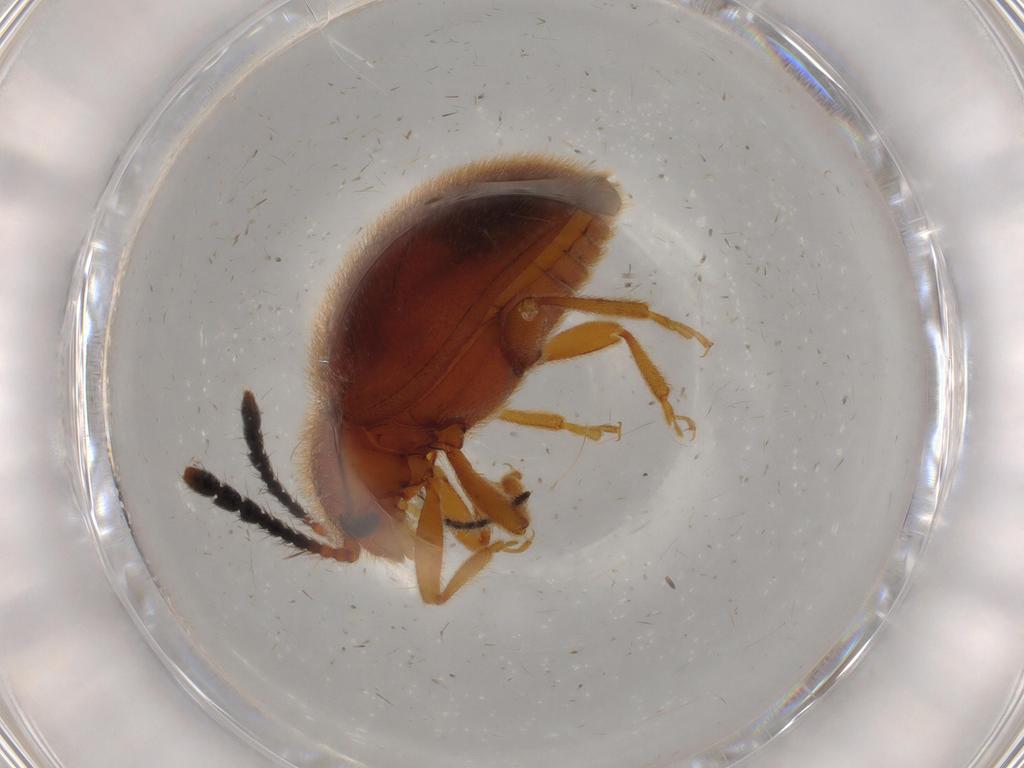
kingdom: Animalia
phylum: Arthropoda
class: Insecta
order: Coleoptera
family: Endomychidae
